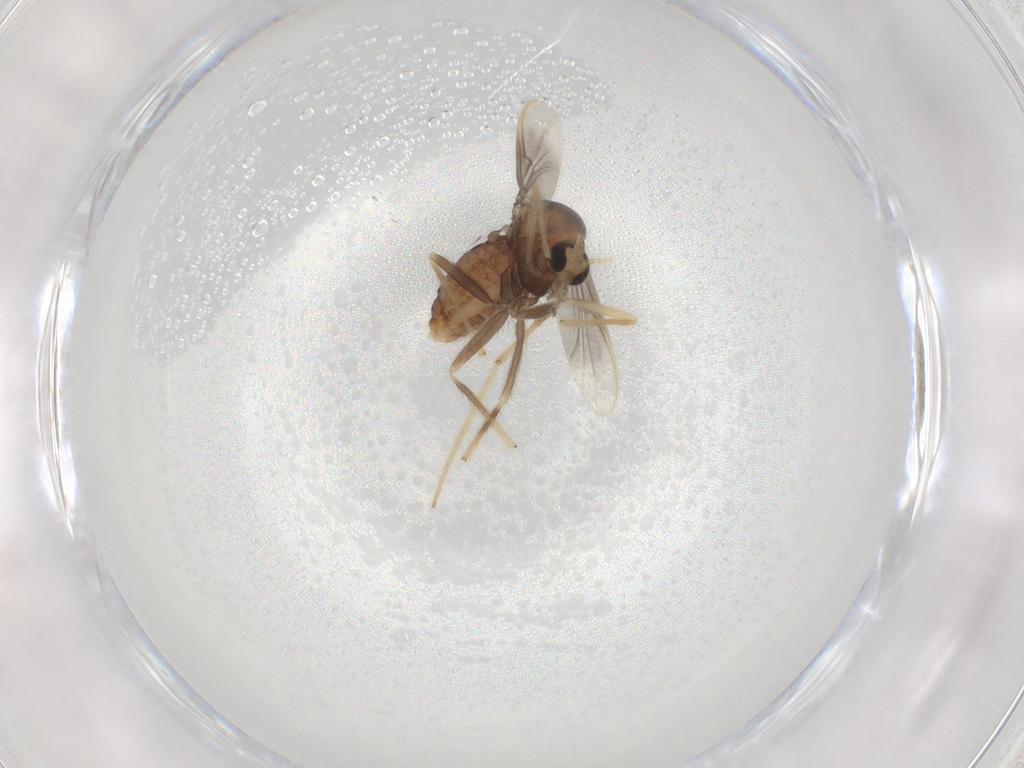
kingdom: Animalia
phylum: Arthropoda
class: Insecta
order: Diptera
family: Chironomidae
